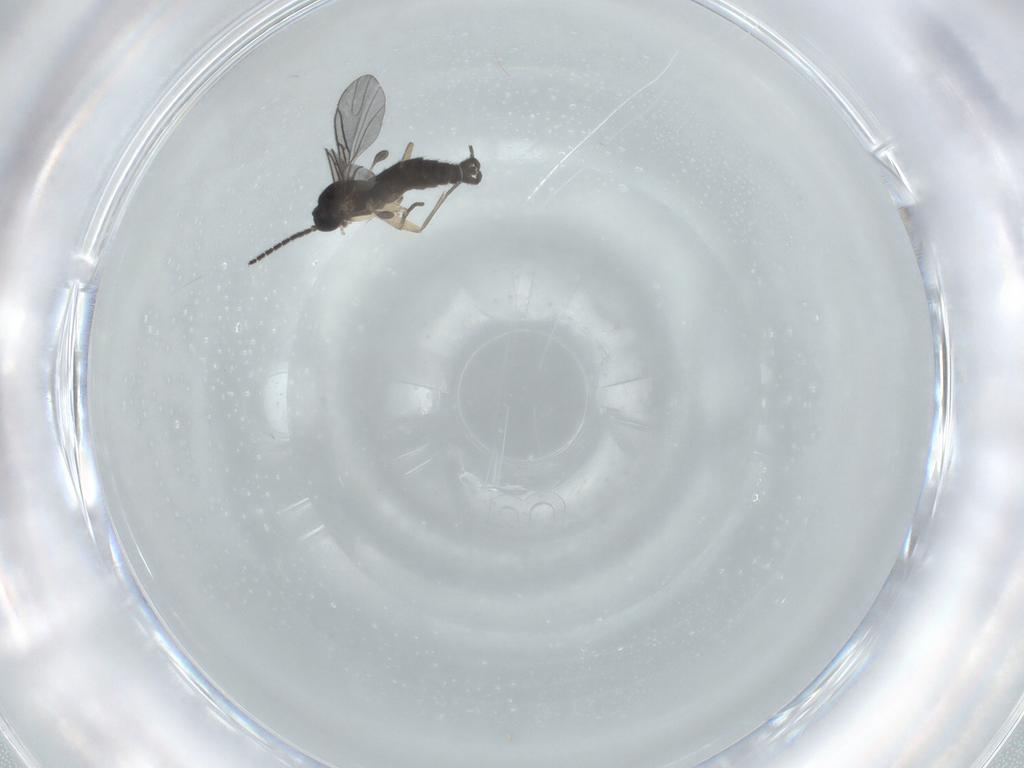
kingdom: Animalia
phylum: Arthropoda
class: Insecta
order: Diptera
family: Sciaridae
